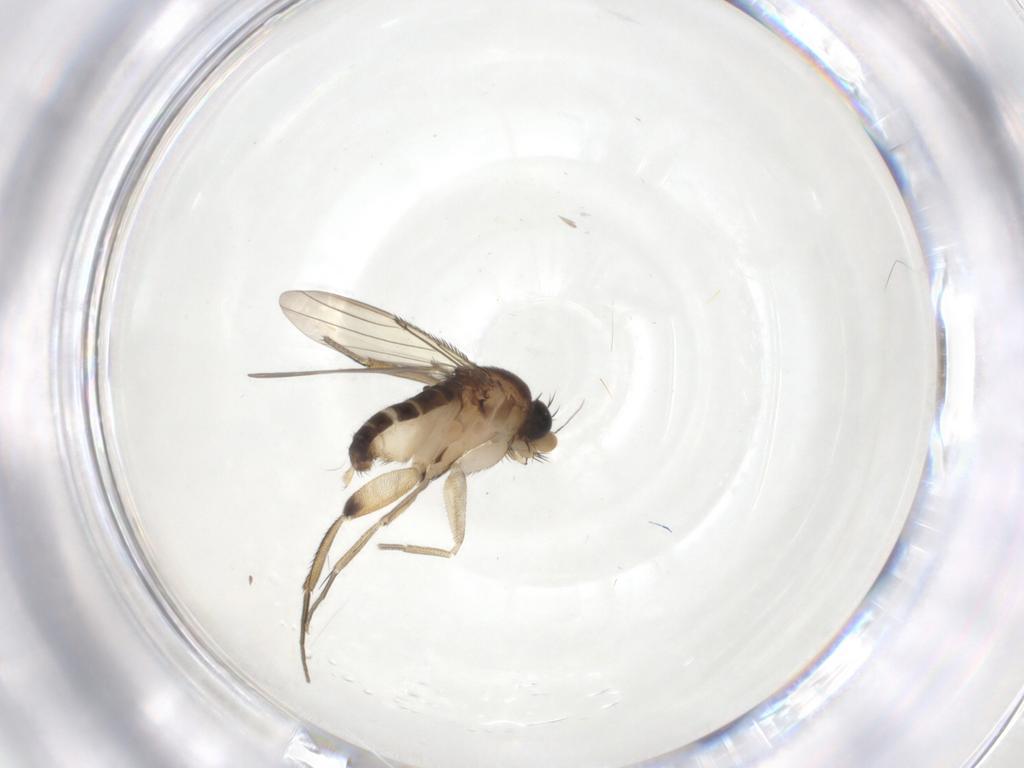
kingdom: Animalia
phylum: Arthropoda
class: Insecta
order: Diptera
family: Phoridae
